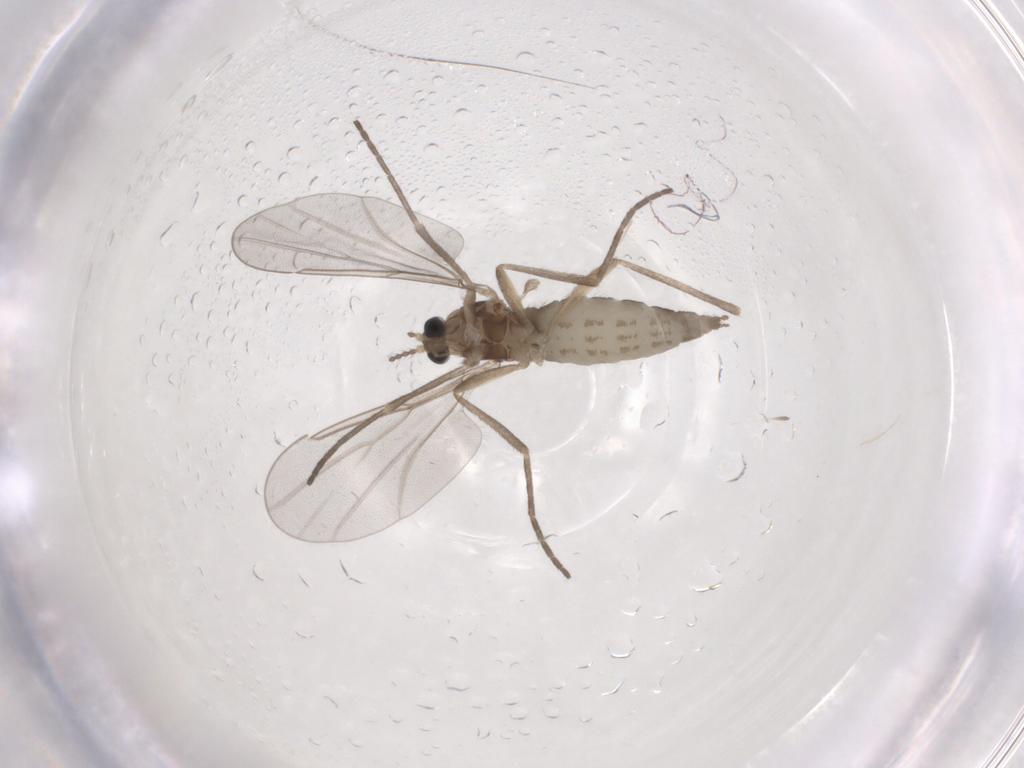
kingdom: Animalia
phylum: Arthropoda
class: Insecta
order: Diptera
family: Cecidomyiidae
